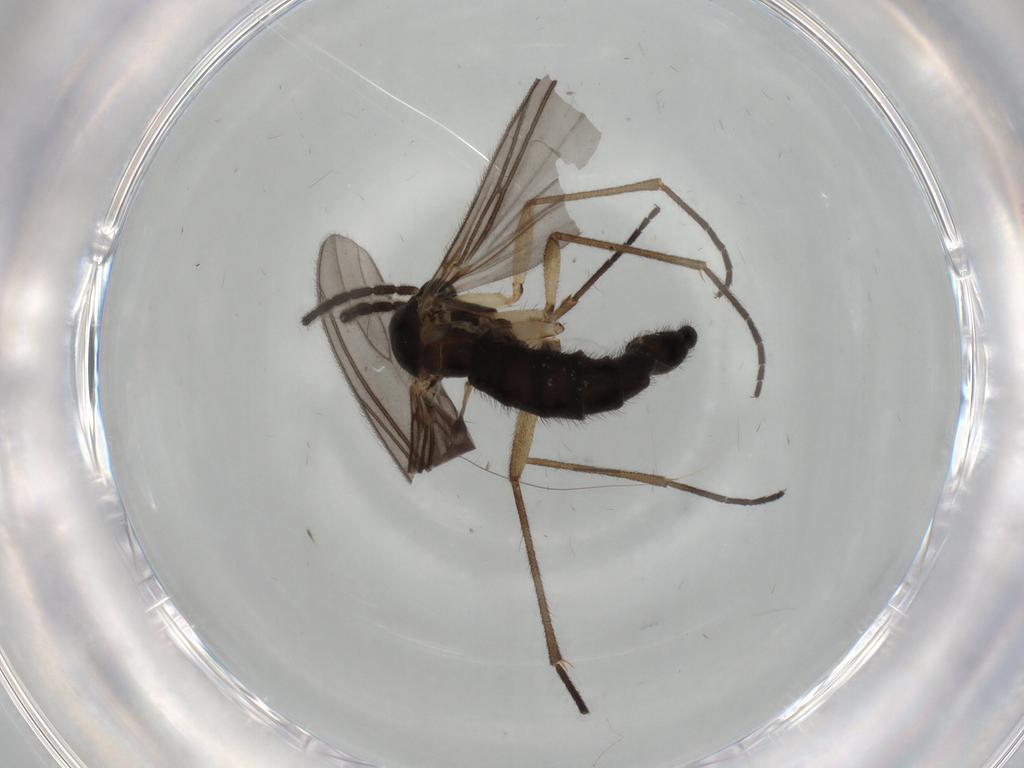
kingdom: Animalia
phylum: Arthropoda
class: Insecta
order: Diptera
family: Sciaridae
